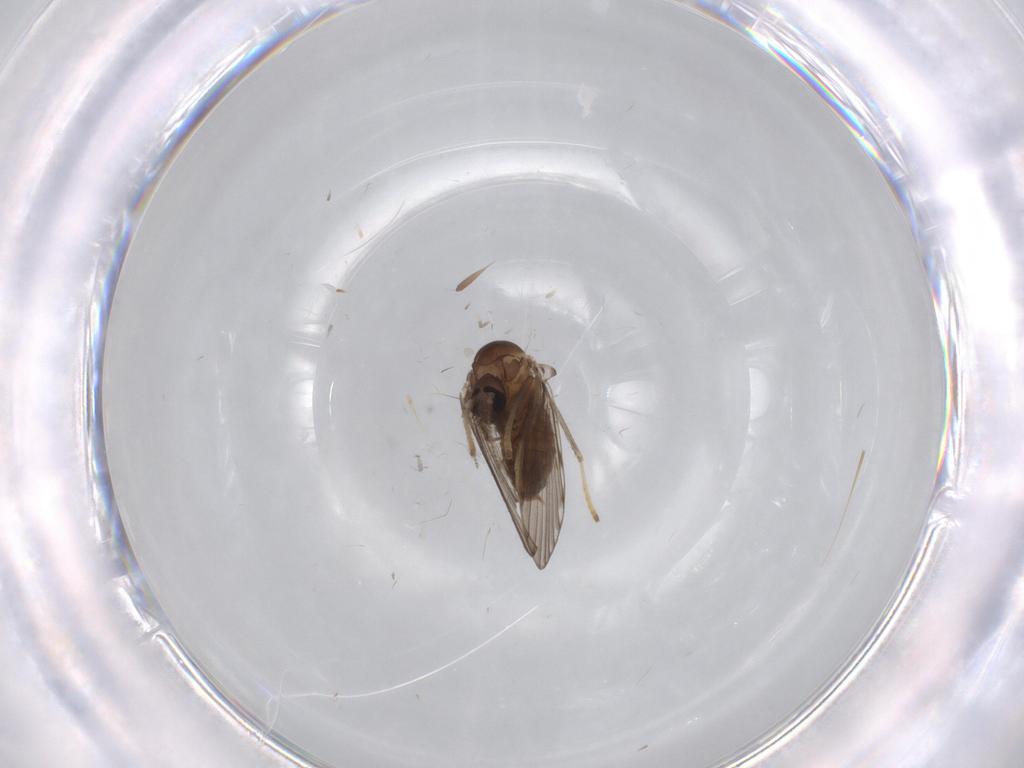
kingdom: Animalia
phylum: Arthropoda
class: Insecta
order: Diptera
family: Psychodidae
